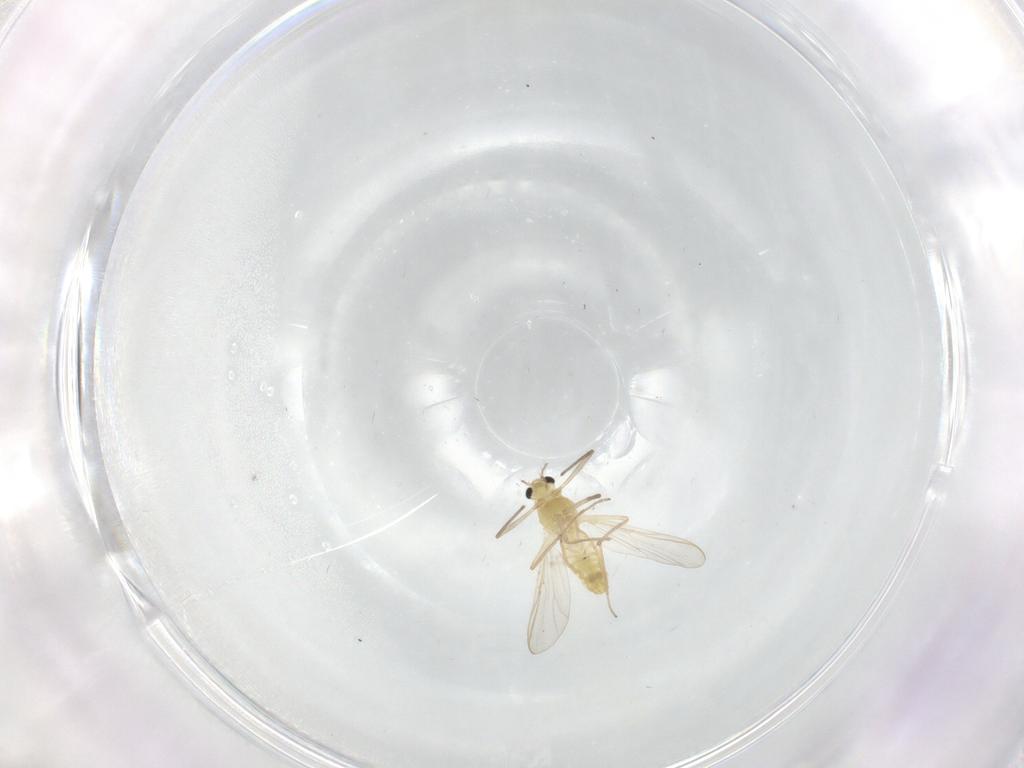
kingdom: Animalia
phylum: Arthropoda
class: Insecta
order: Diptera
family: Chironomidae
